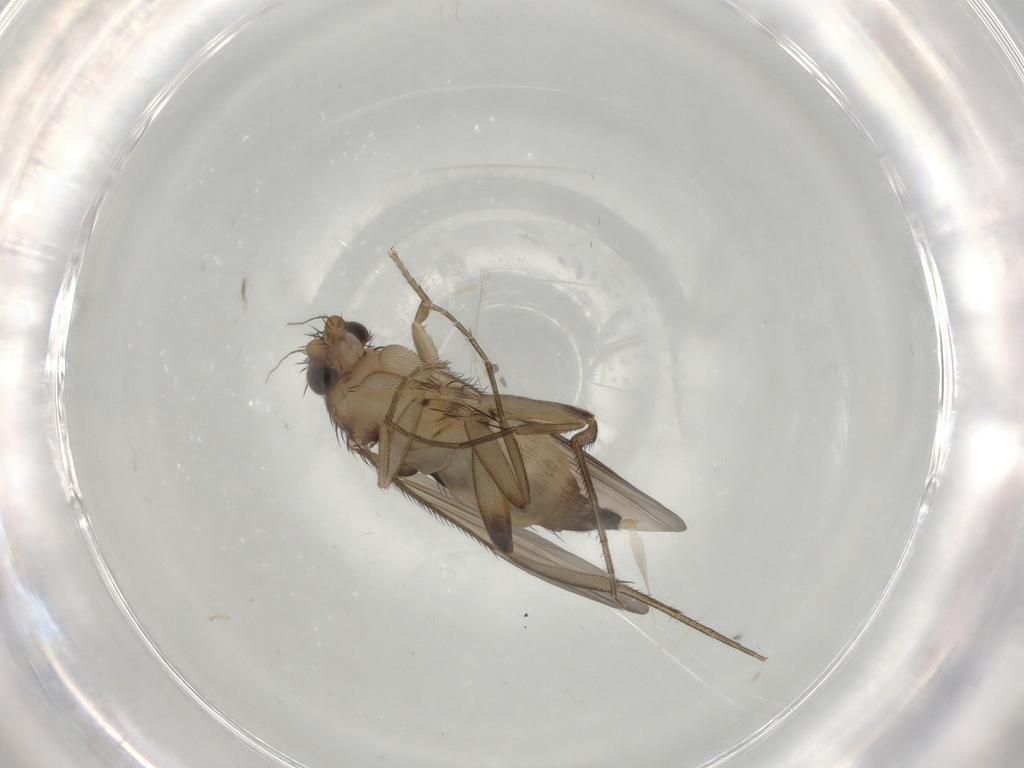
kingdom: Animalia
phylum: Arthropoda
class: Insecta
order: Diptera
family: Phoridae
